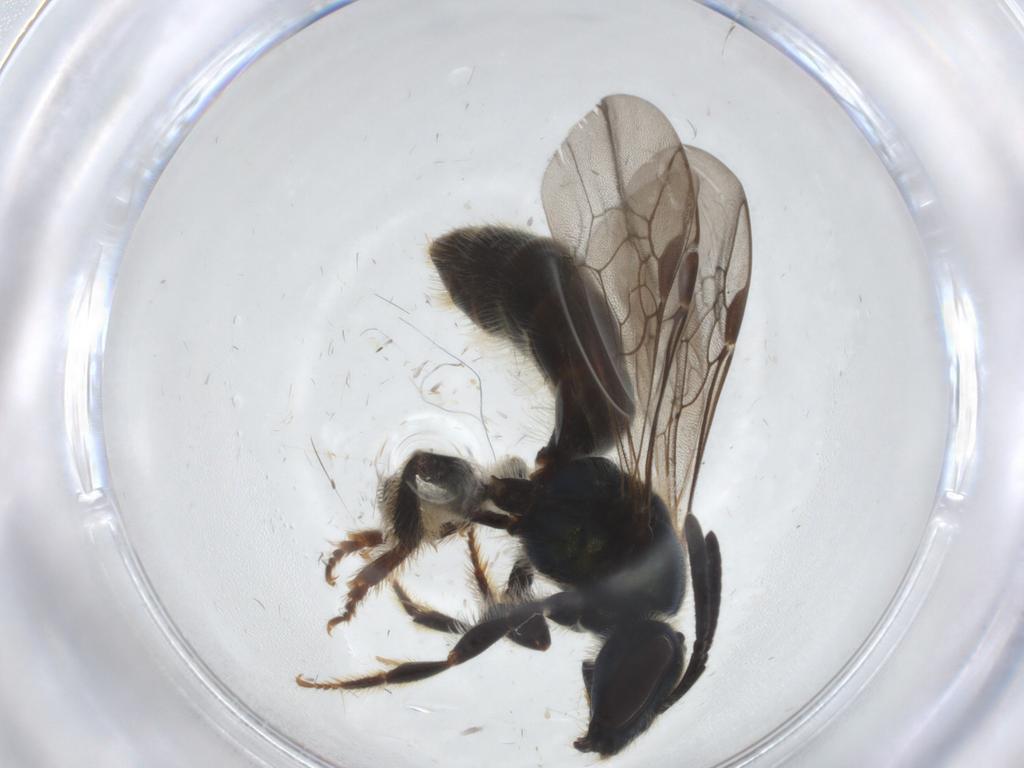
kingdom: Animalia
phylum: Arthropoda
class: Insecta
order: Hymenoptera
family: Halictidae
